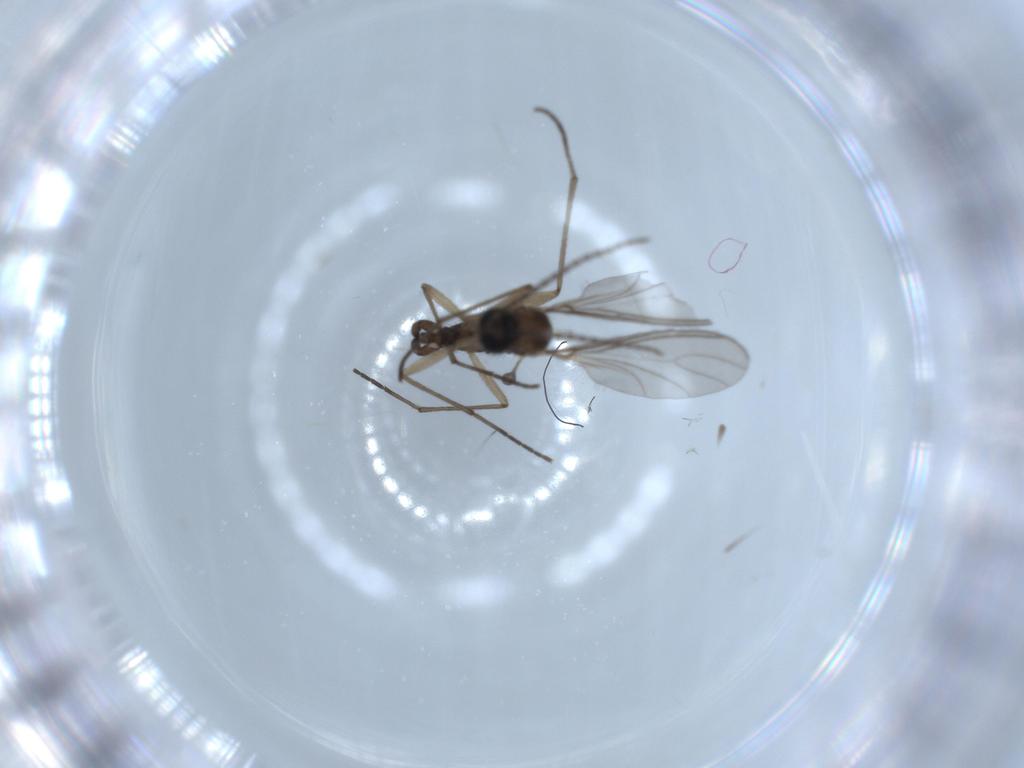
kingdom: Animalia
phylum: Arthropoda
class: Insecta
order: Diptera
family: Sciaridae
